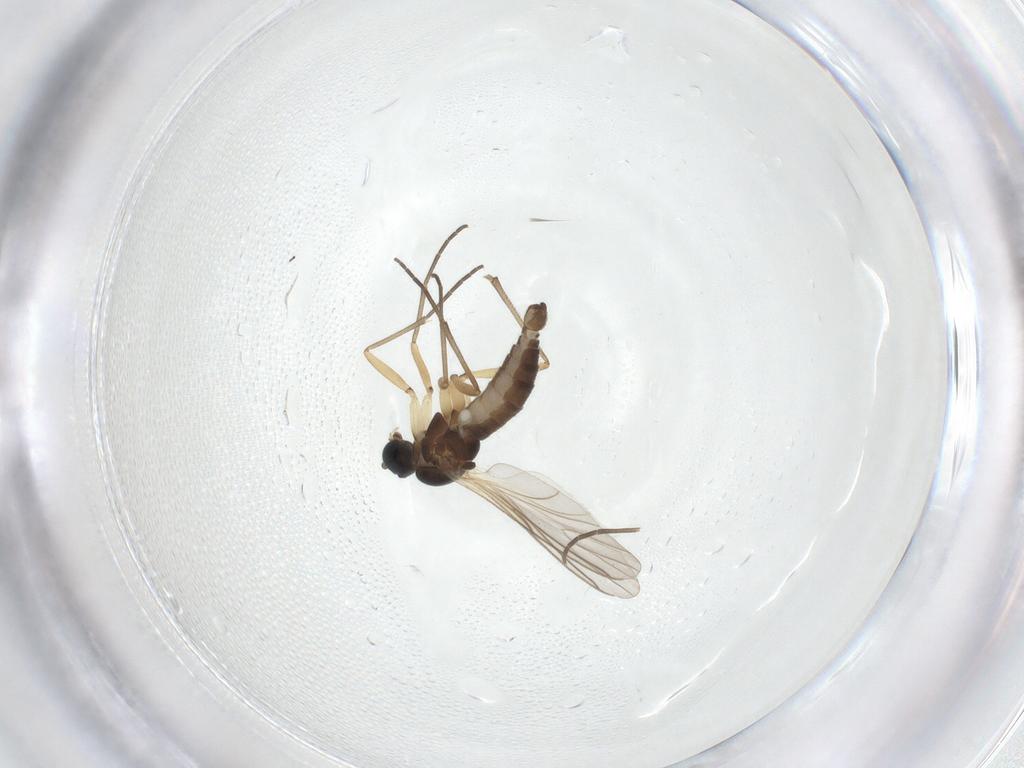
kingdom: Animalia
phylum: Arthropoda
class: Insecta
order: Diptera
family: Sciaridae
